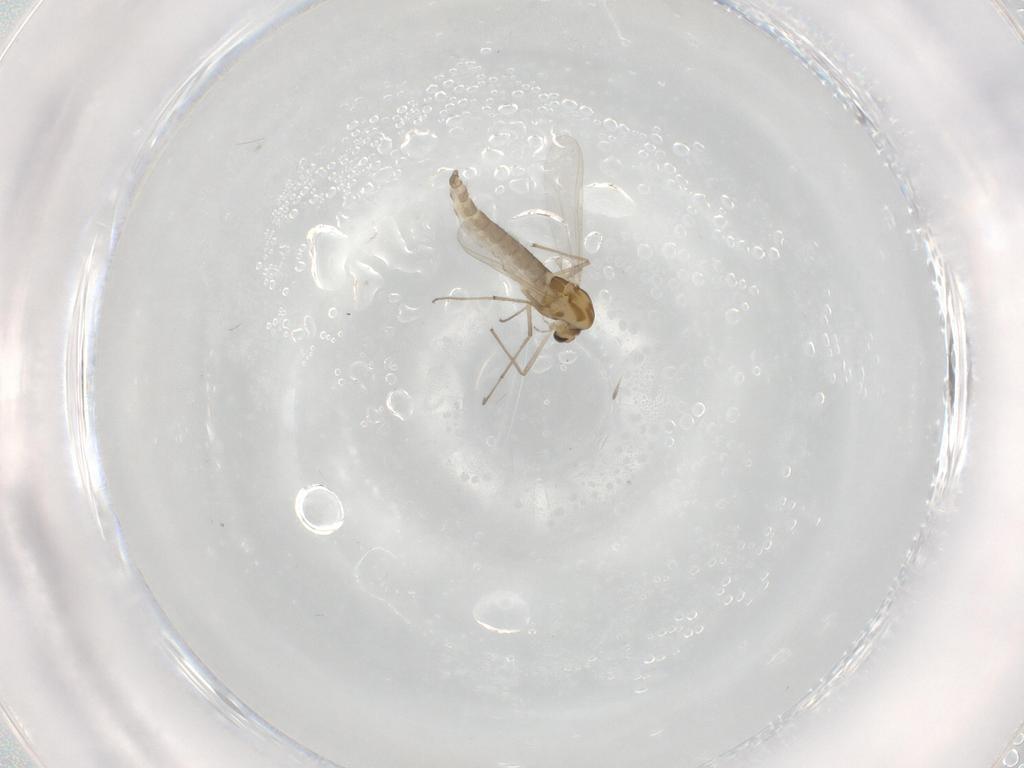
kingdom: Animalia
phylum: Arthropoda
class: Insecta
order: Diptera
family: Chironomidae
